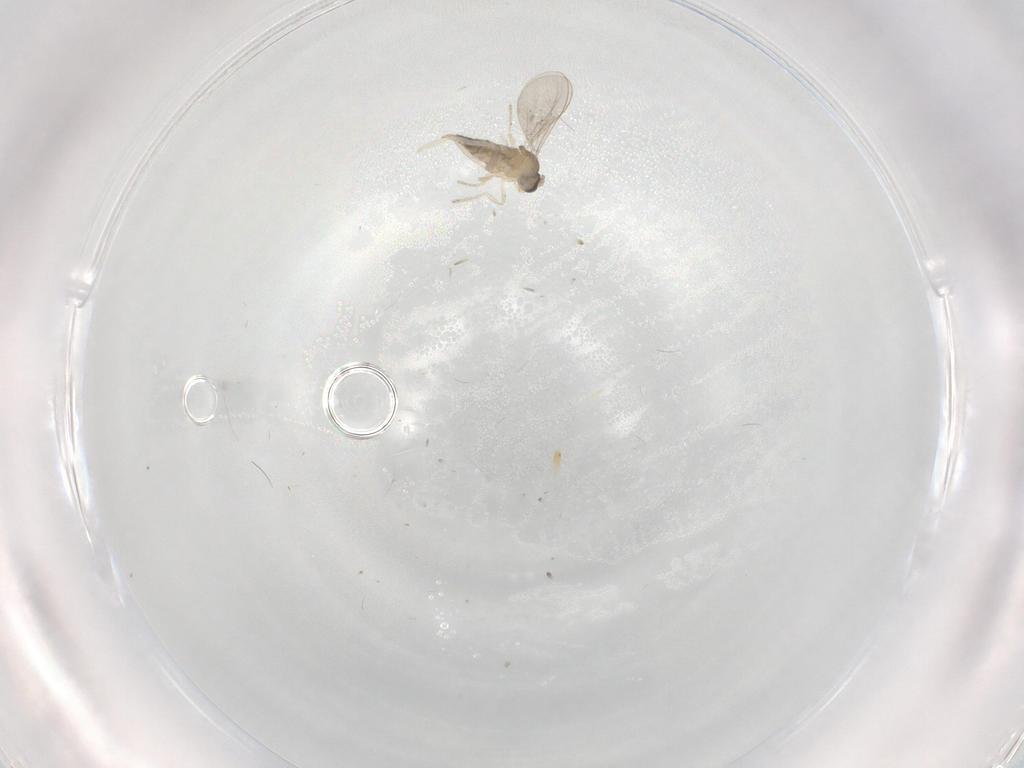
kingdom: Animalia
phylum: Arthropoda
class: Insecta
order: Diptera
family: Cecidomyiidae
